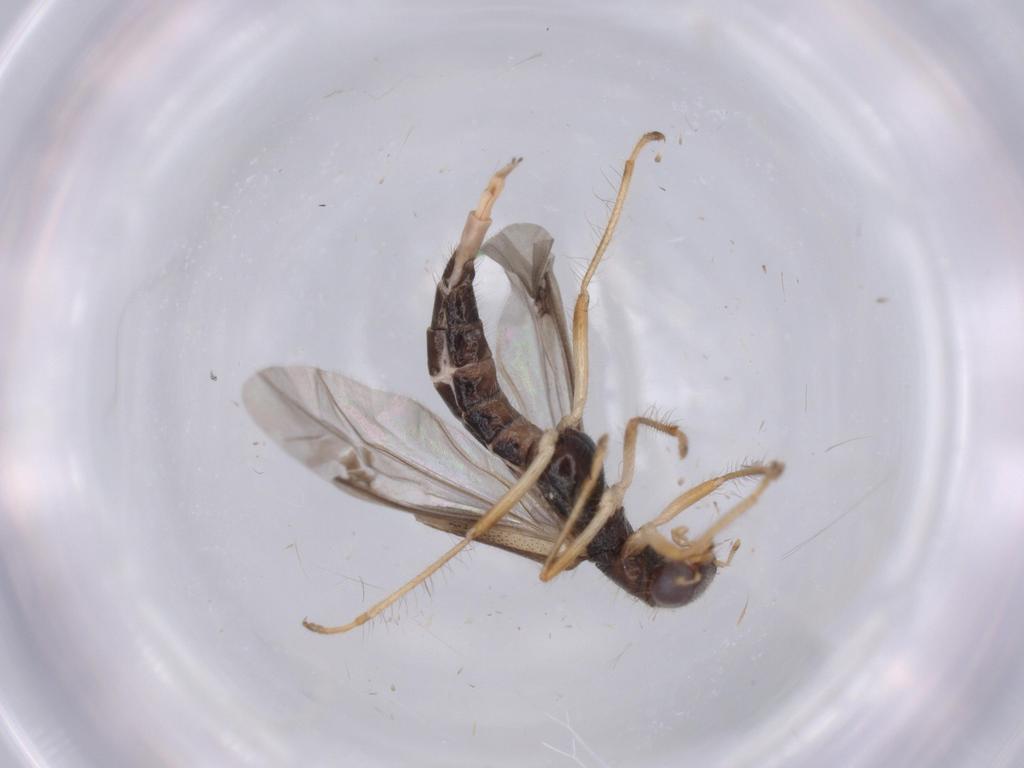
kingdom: Animalia
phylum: Arthropoda
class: Insecta
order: Coleoptera
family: Cleridae
